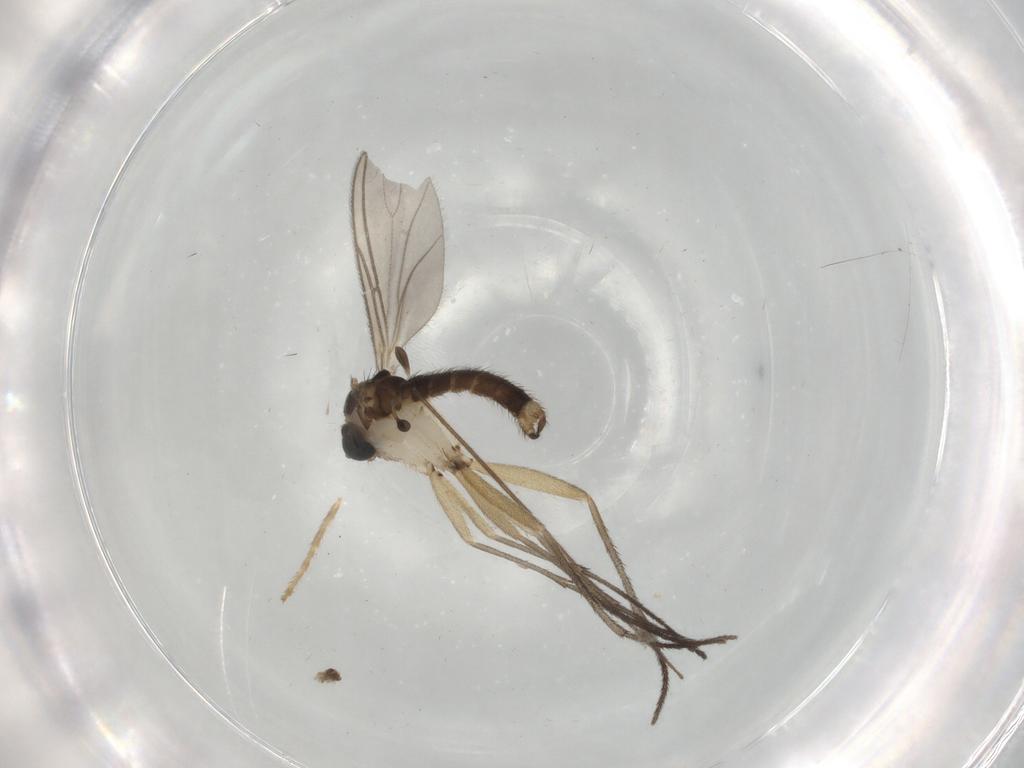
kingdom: Animalia
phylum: Arthropoda
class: Insecta
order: Diptera
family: Sciaridae
